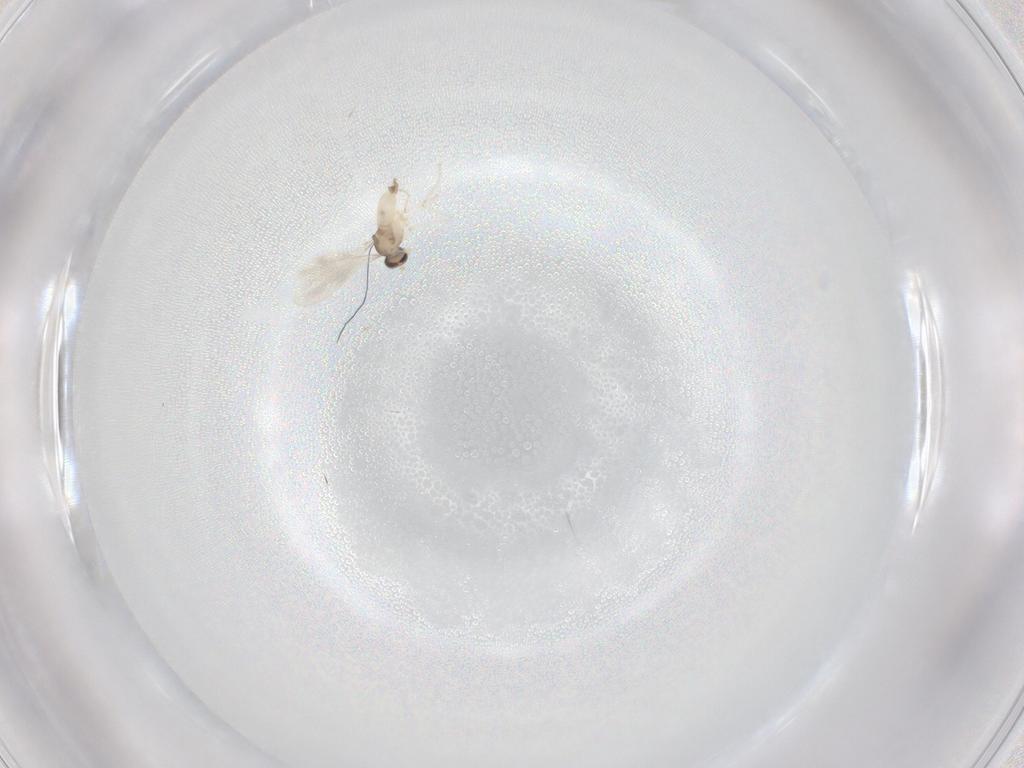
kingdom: Animalia
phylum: Arthropoda
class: Insecta
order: Diptera
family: Cecidomyiidae
